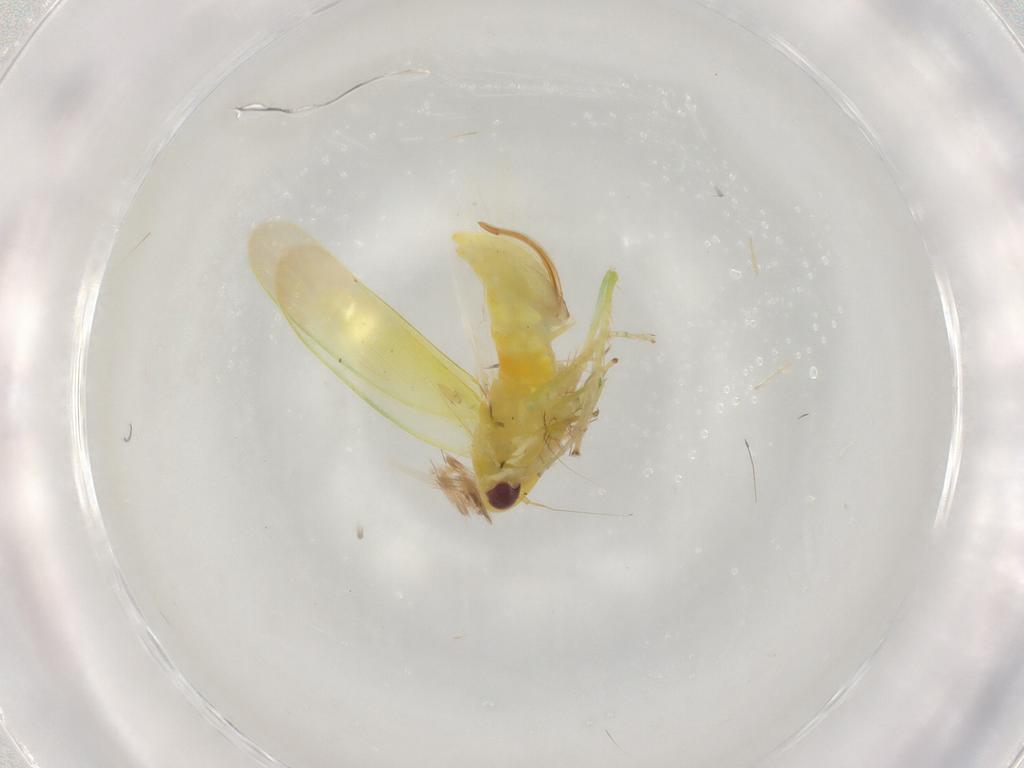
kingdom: Animalia
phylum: Arthropoda
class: Insecta
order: Hemiptera
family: Cicadellidae
